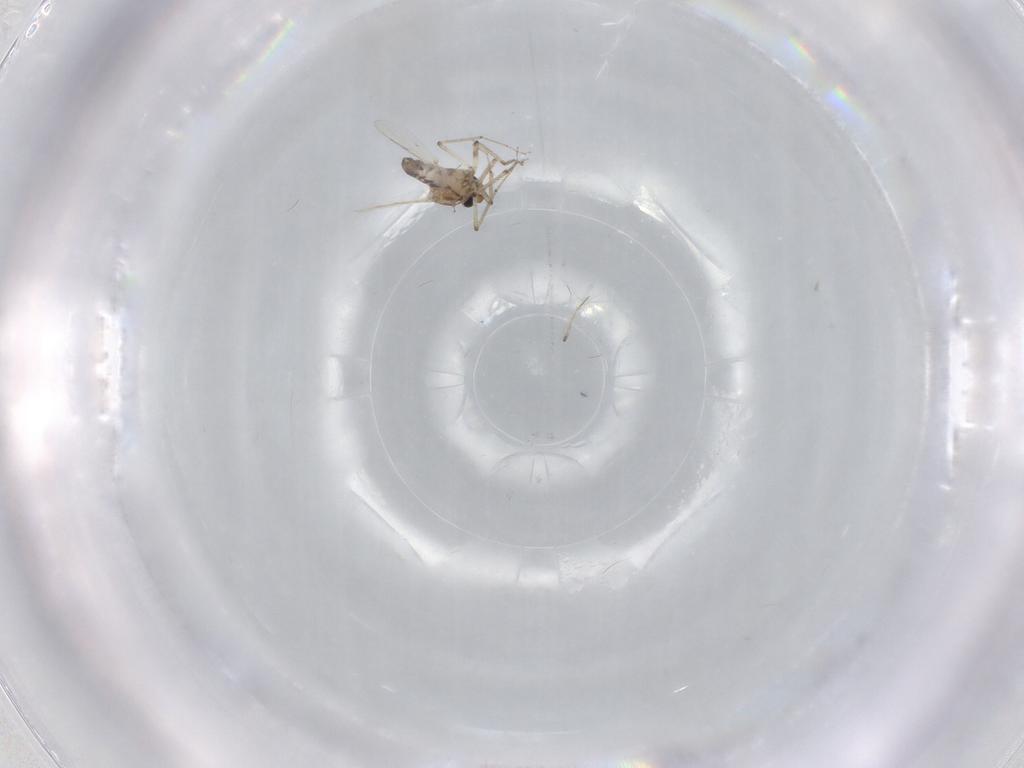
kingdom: Animalia
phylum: Arthropoda
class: Insecta
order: Diptera
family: Ceratopogonidae
